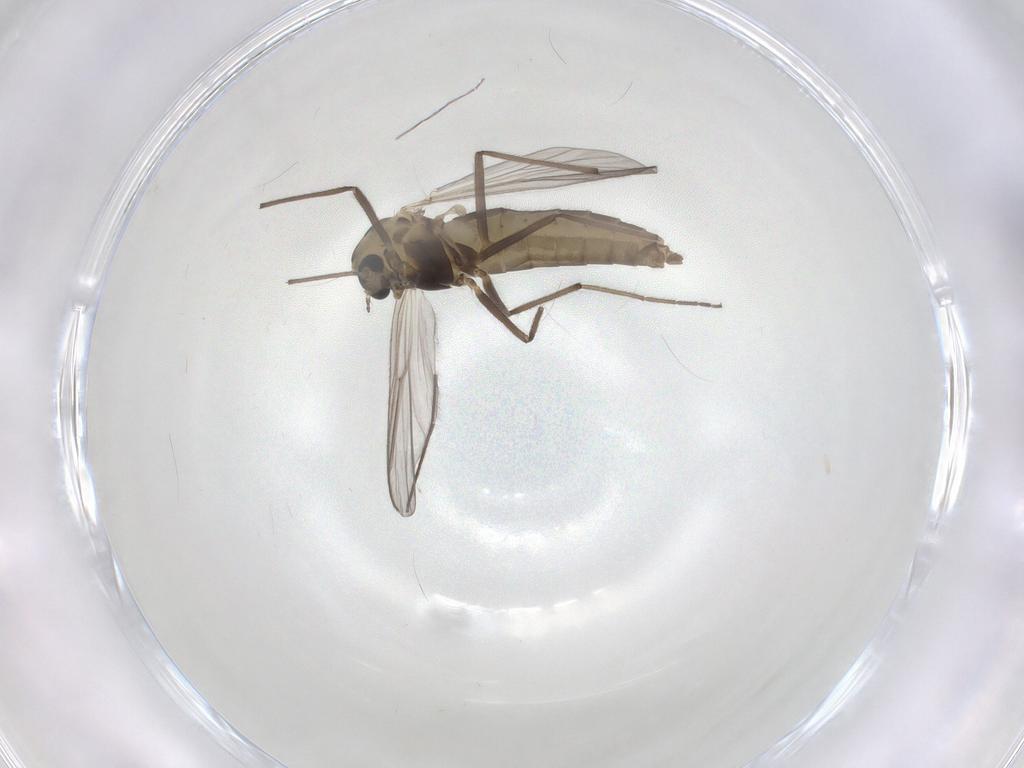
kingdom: Animalia
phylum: Arthropoda
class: Insecta
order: Diptera
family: Chironomidae
